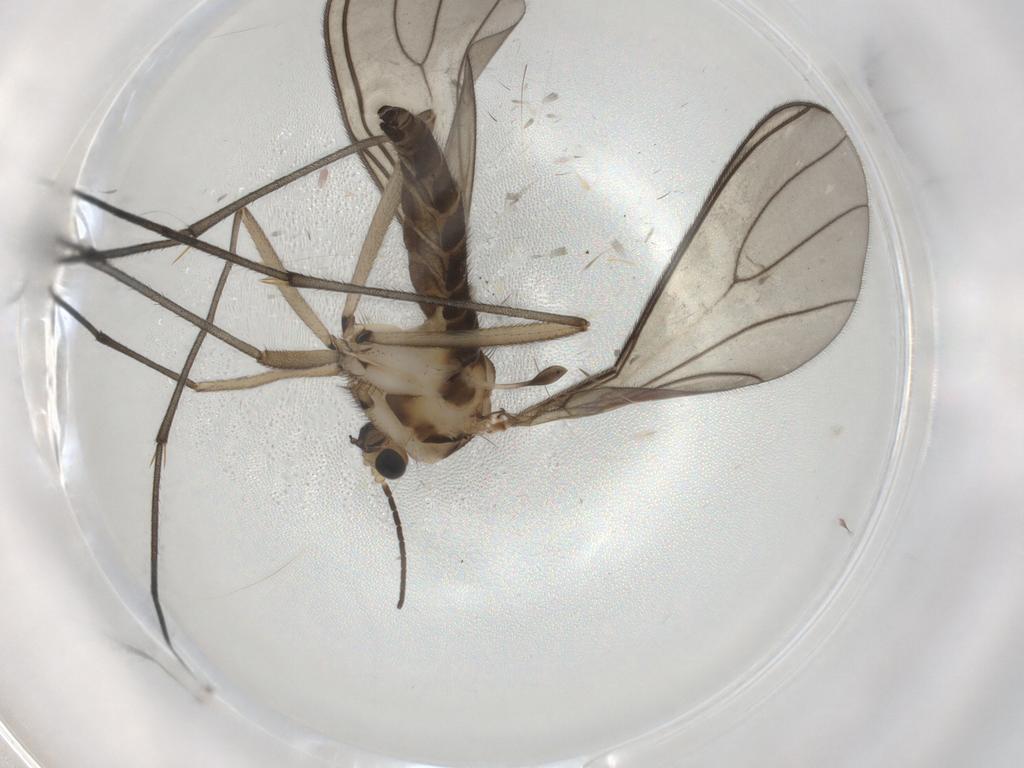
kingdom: Animalia
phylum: Arthropoda
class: Insecta
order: Diptera
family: Sciaridae
